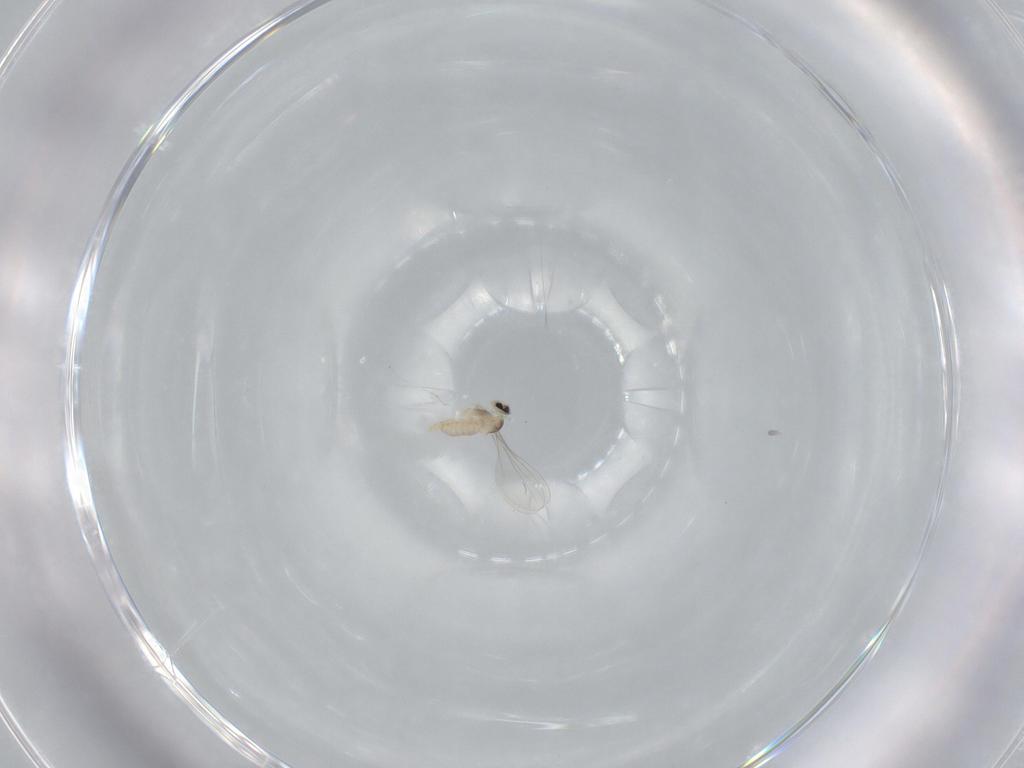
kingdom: Animalia
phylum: Arthropoda
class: Insecta
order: Diptera
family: Cecidomyiidae
